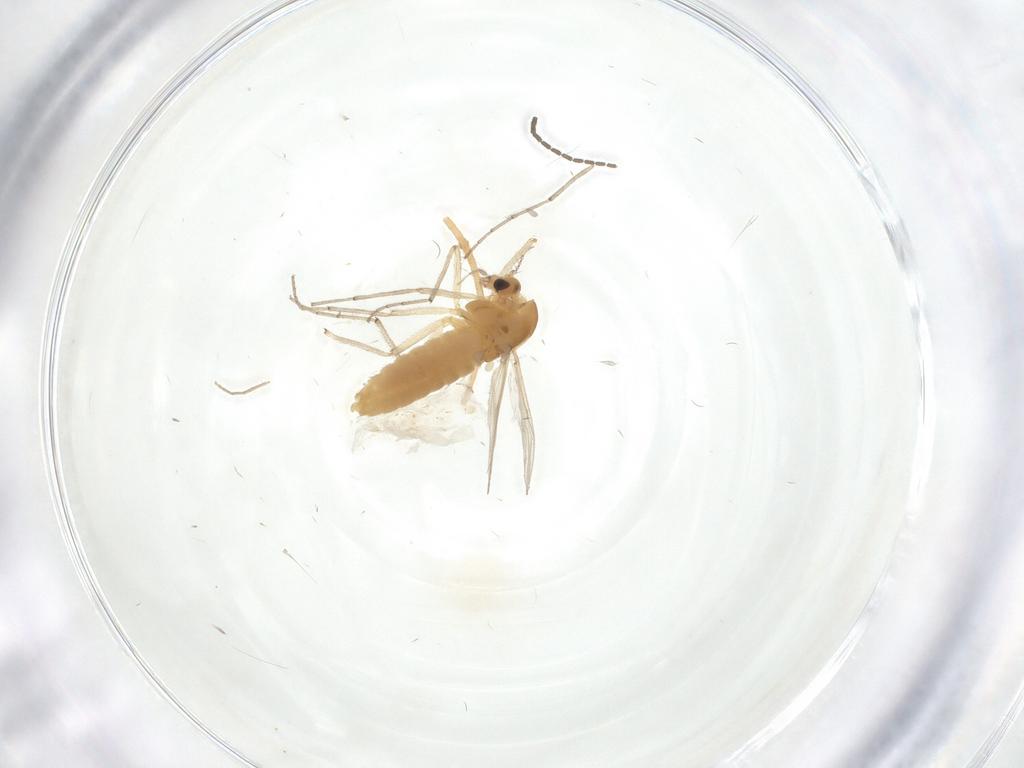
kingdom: Animalia
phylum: Arthropoda
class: Insecta
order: Diptera
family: Chironomidae
